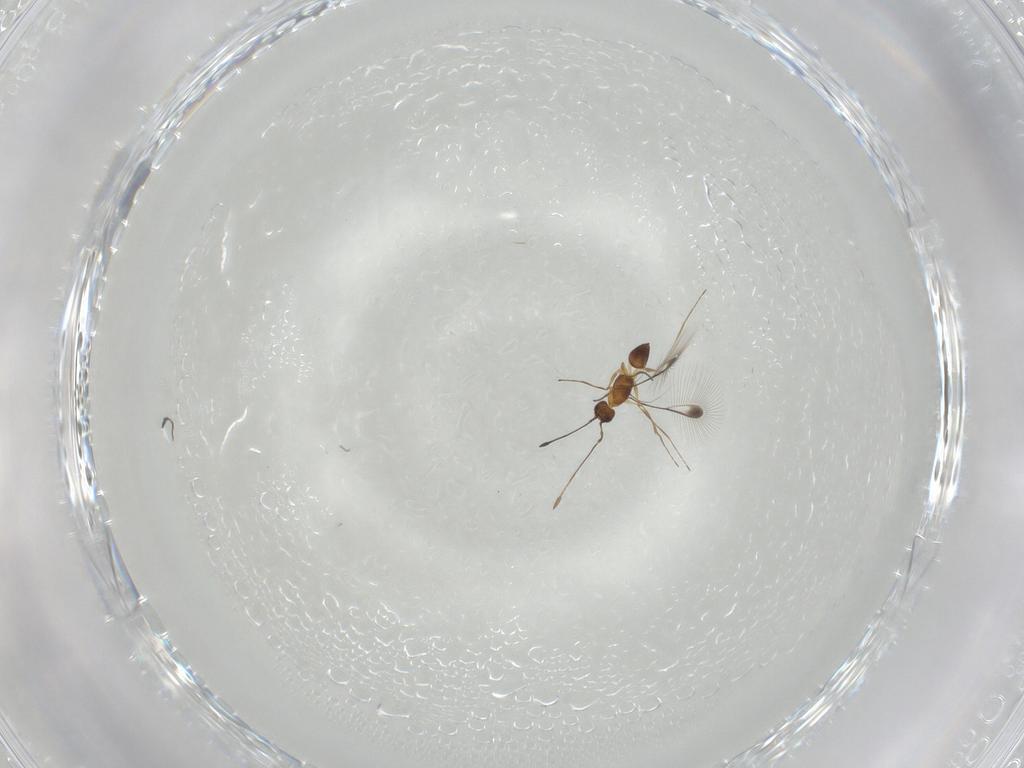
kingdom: Animalia
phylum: Arthropoda
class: Insecta
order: Hymenoptera
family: Mymaridae
